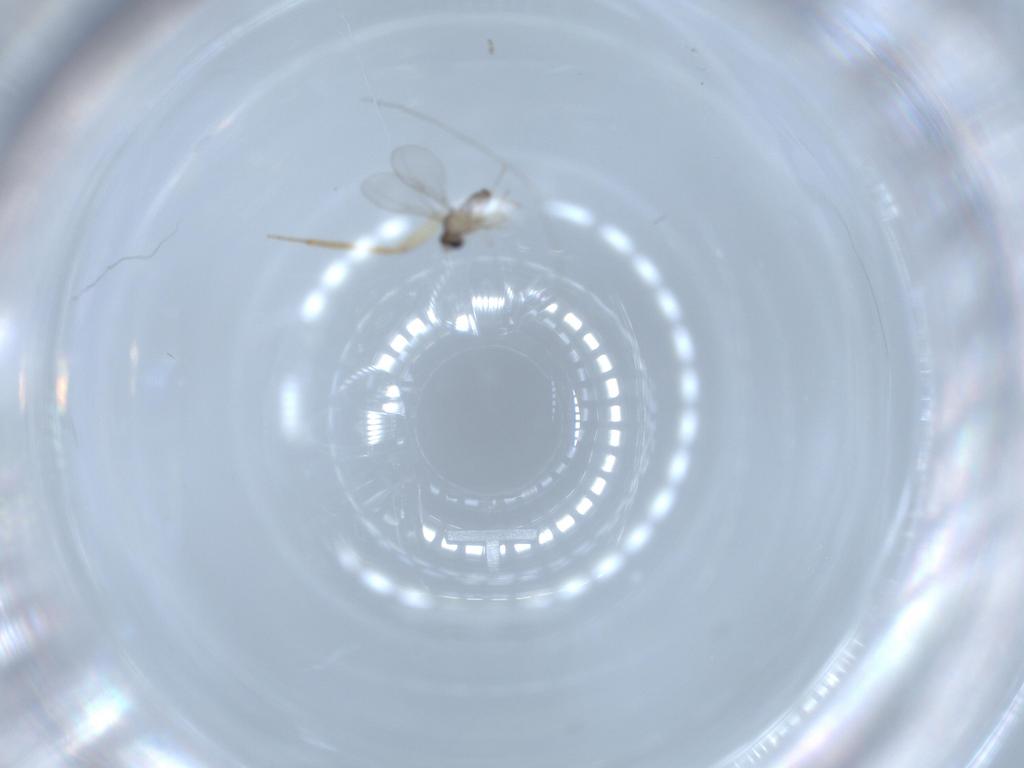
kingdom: Animalia
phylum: Arthropoda
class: Insecta
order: Diptera
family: Cecidomyiidae
